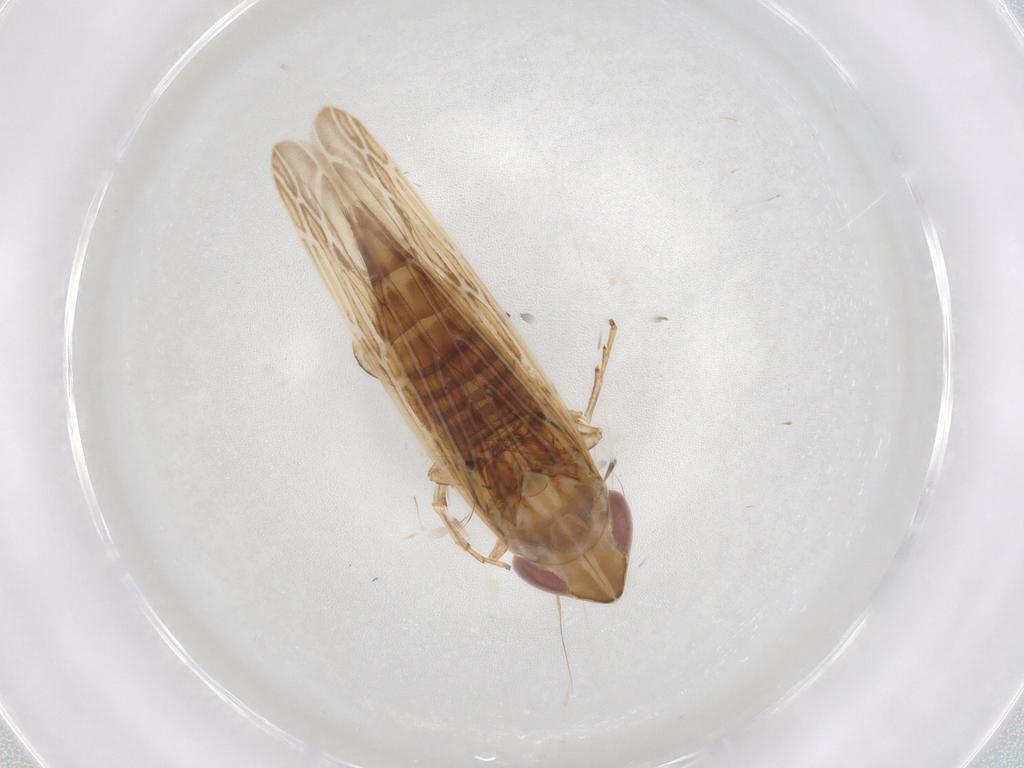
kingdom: Animalia
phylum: Arthropoda
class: Insecta
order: Hemiptera
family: Cicadellidae
